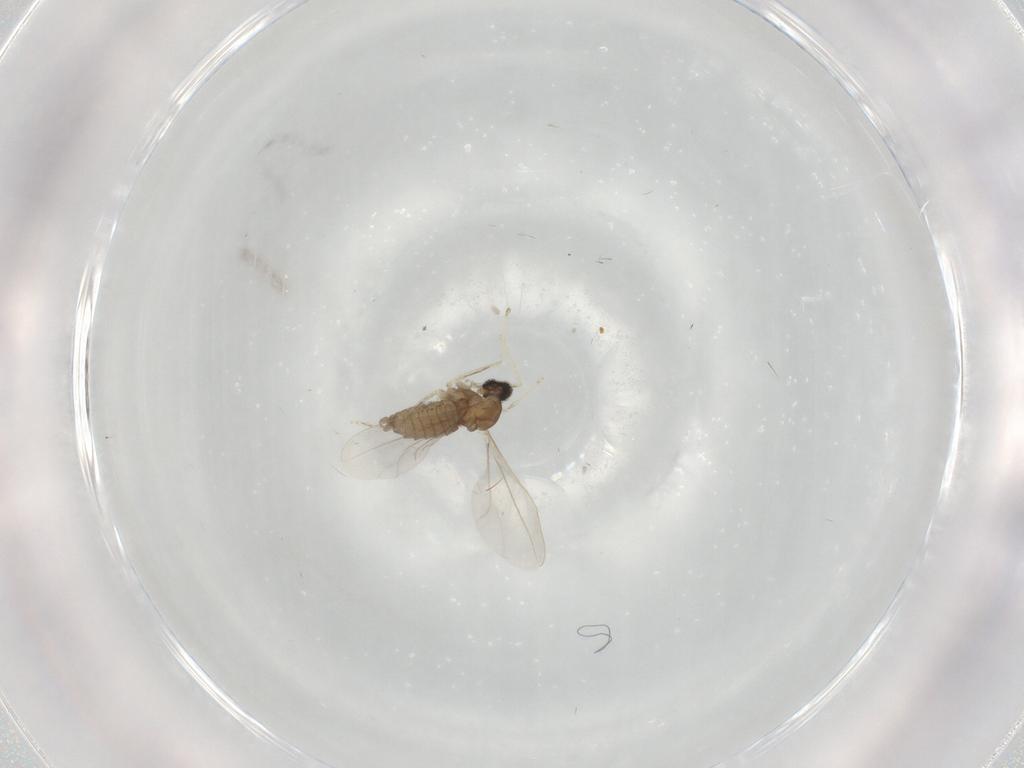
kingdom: Animalia
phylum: Arthropoda
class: Insecta
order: Diptera
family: Cecidomyiidae
